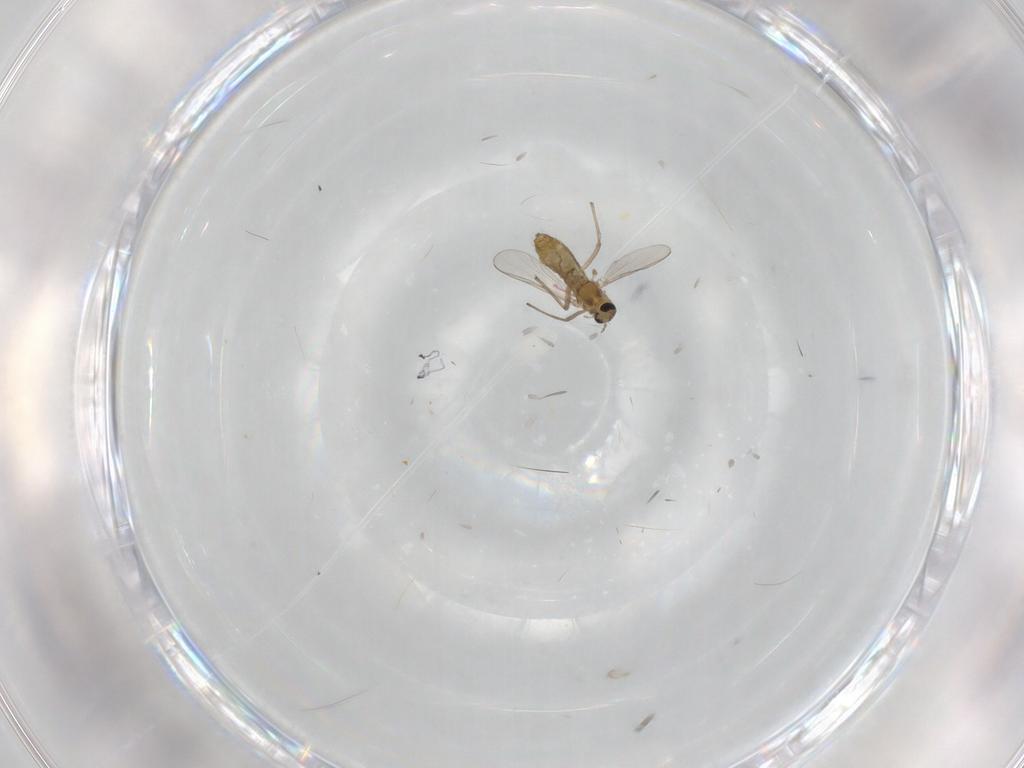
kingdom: Animalia
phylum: Arthropoda
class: Insecta
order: Diptera
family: Chironomidae
